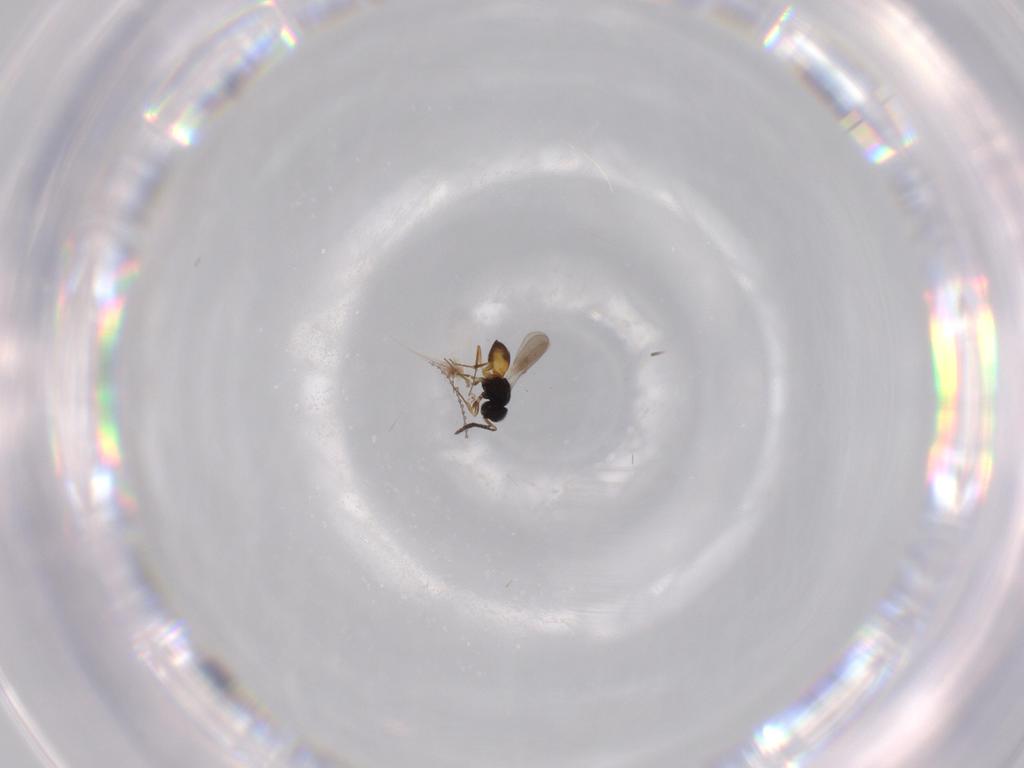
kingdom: Animalia
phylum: Arthropoda
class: Insecta
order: Hymenoptera
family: Scelionidae
